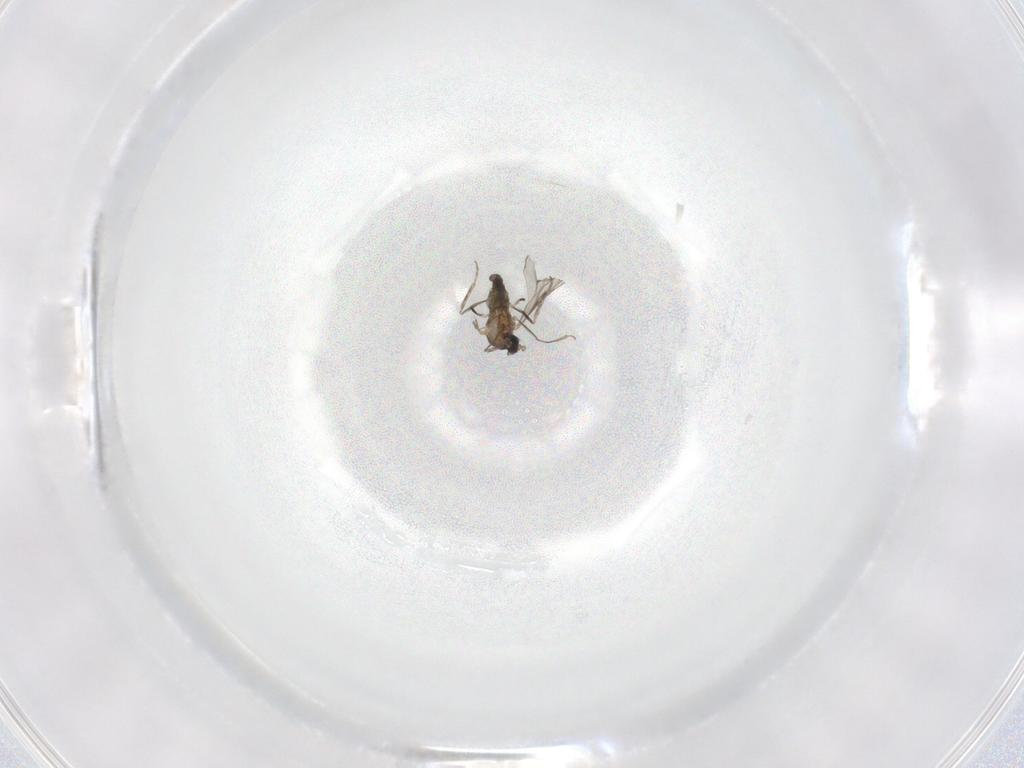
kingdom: Animalia
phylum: Arthropoda
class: Insecta
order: Diptera
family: Cecidomyiidae
